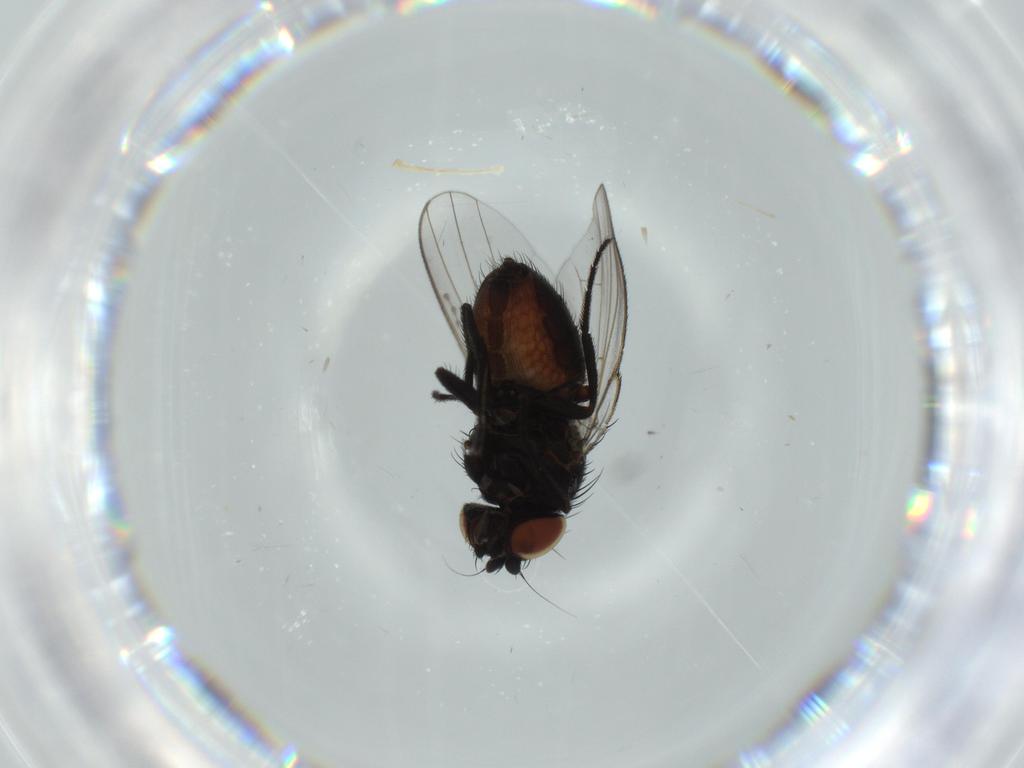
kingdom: Animalia
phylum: Arthropoda
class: Insecta
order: Diptera
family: Milichiidae
